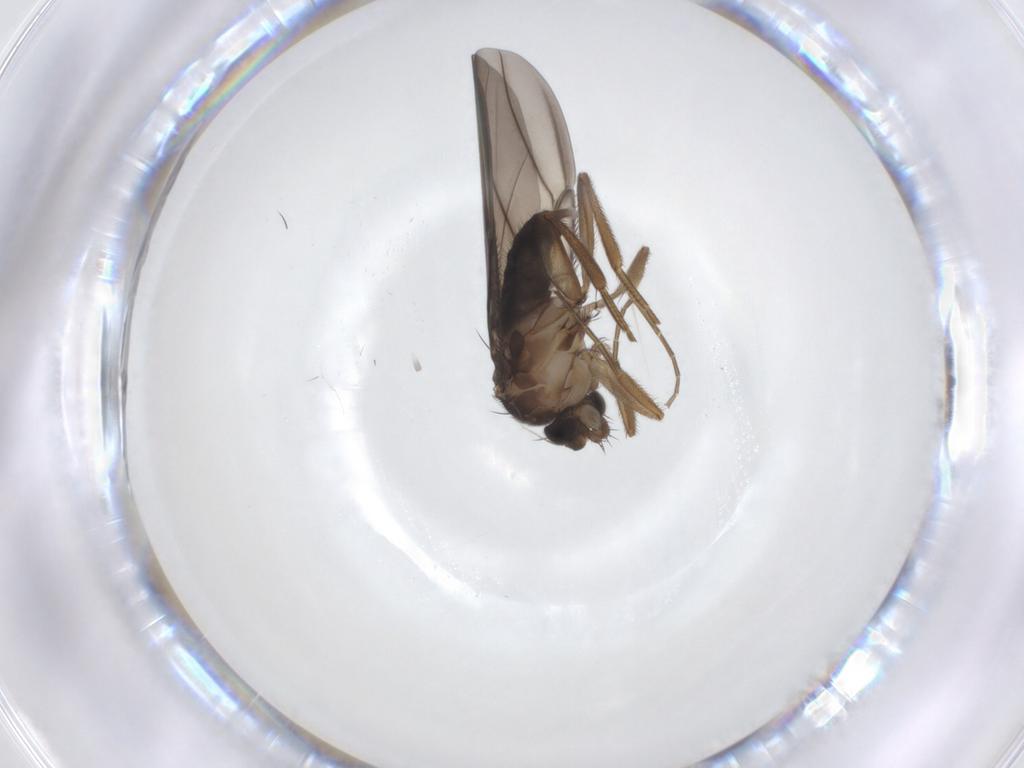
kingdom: Animalia
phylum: Arthropoda
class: Insecta
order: Diptera
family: Phoridae
